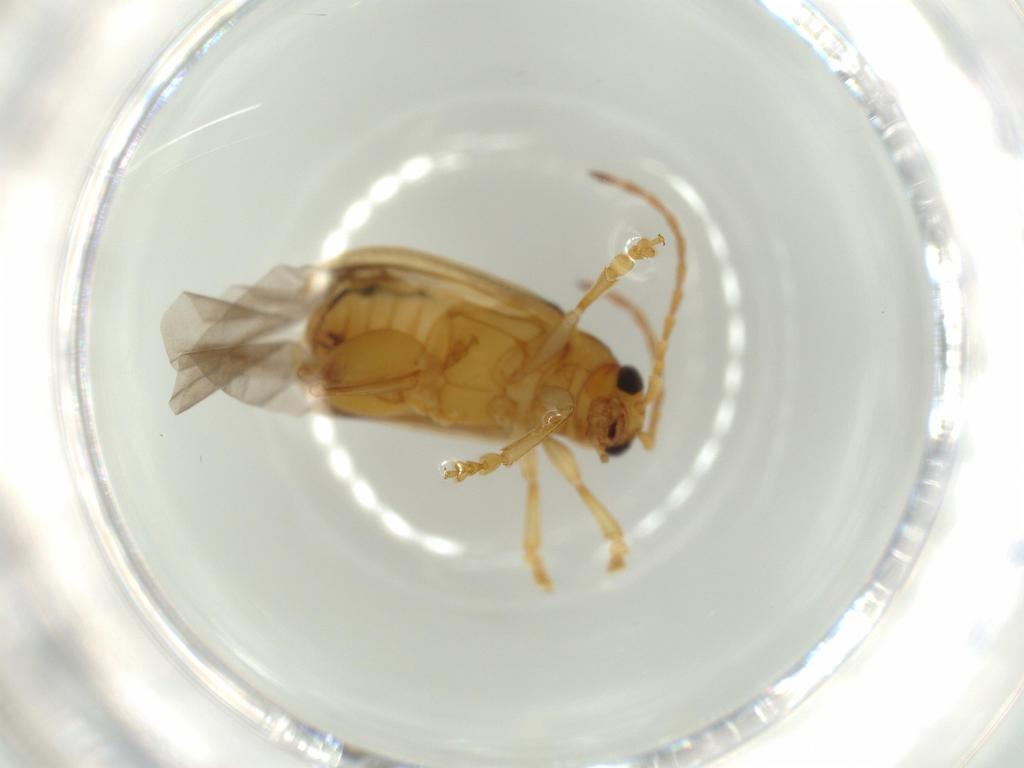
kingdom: Animalia
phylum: Arthropoda
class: Insecta
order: Coleoptera
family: Chrysomelidae
